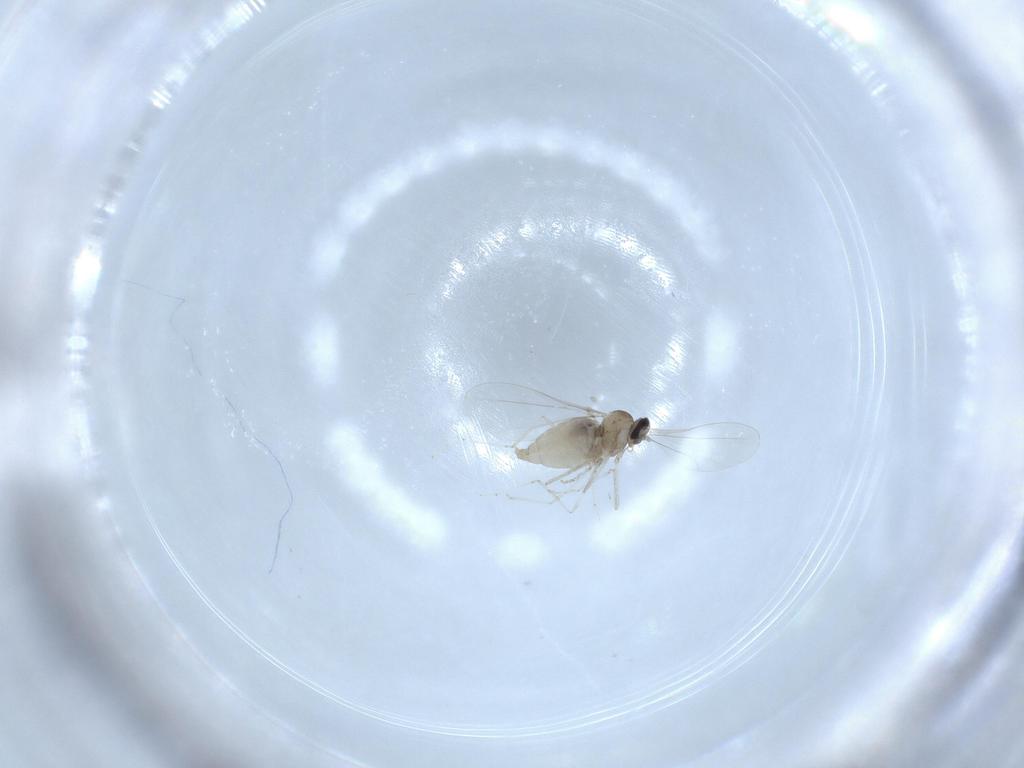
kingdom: Animalia
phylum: Arthropoda
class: Insecta
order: Diptera
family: Cecidomyiidae
